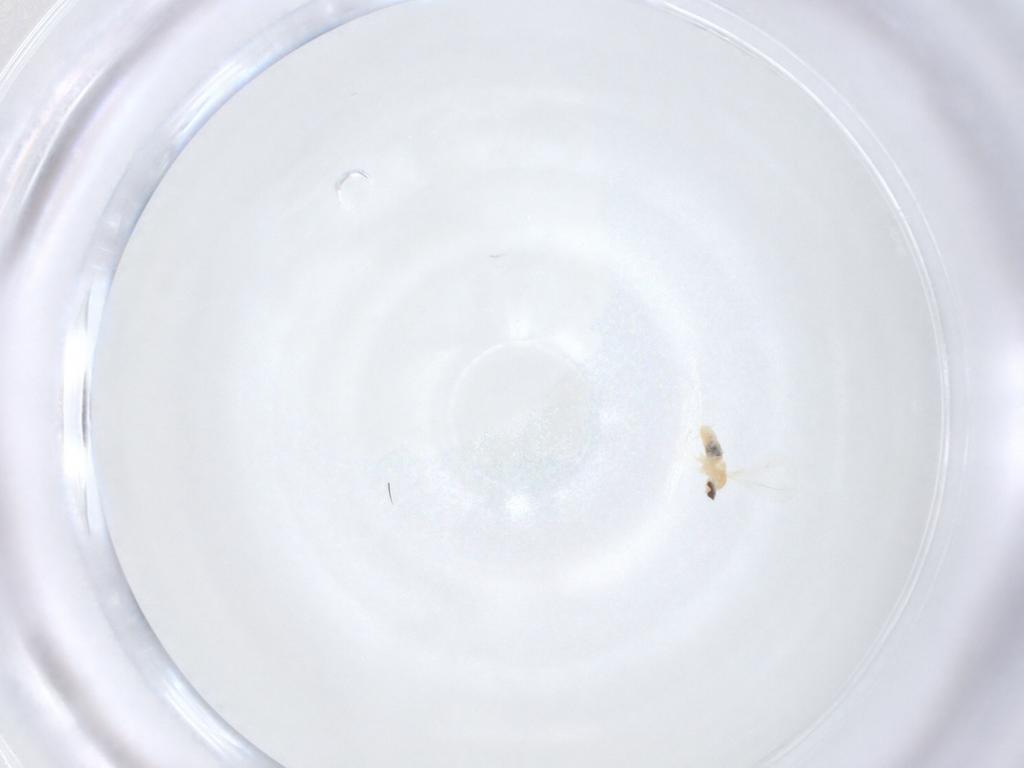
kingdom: Animalia
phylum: Arthropoda
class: Insecta
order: Diptera
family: Cecidomyiidae
